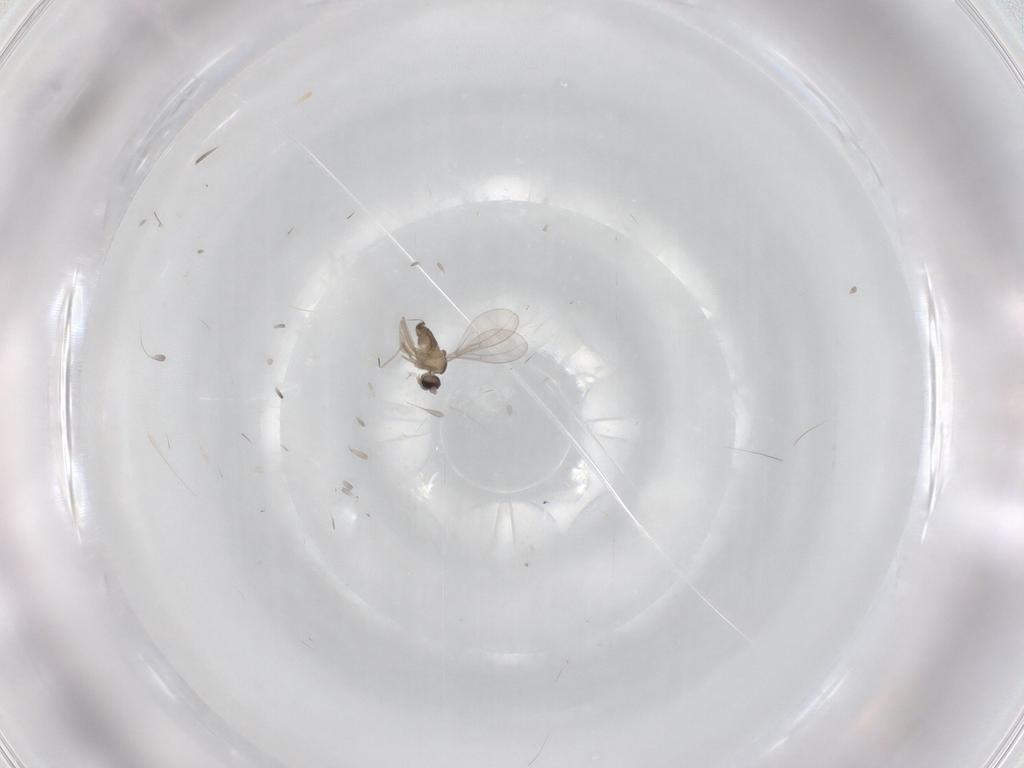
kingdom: Animalia
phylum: Arthropoda
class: Insecta
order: Diptera
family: Cecidomyiidae
